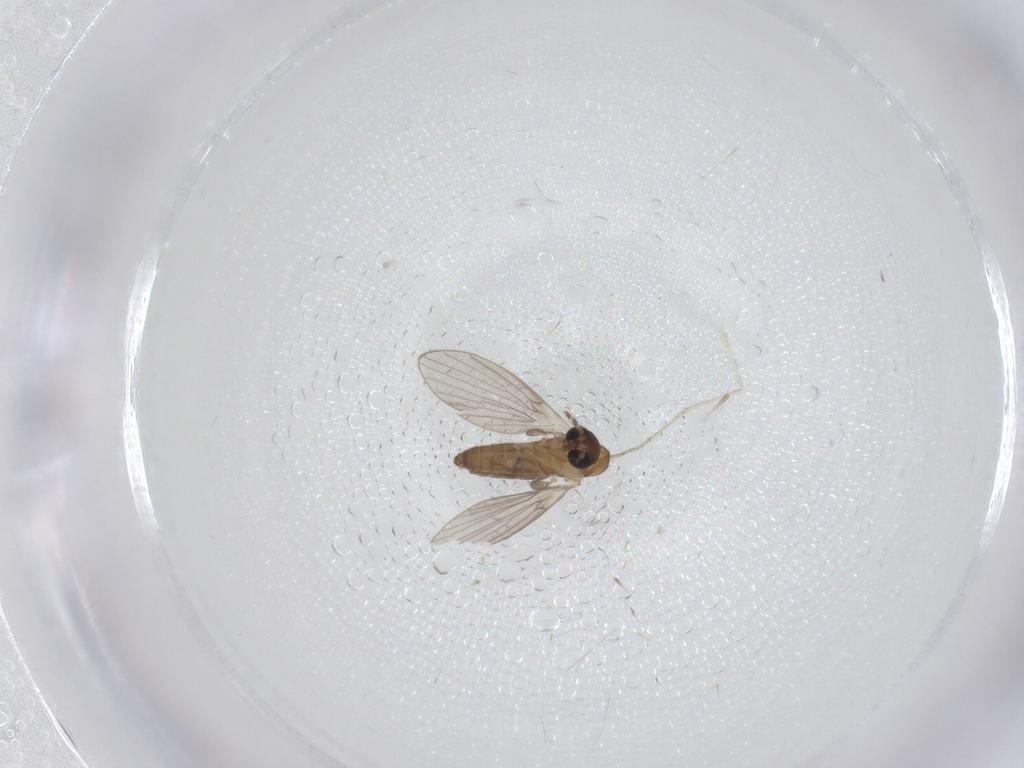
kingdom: Animalia
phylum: Arthropoda
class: Insecta
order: Diptera
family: Cecidomyiidae
